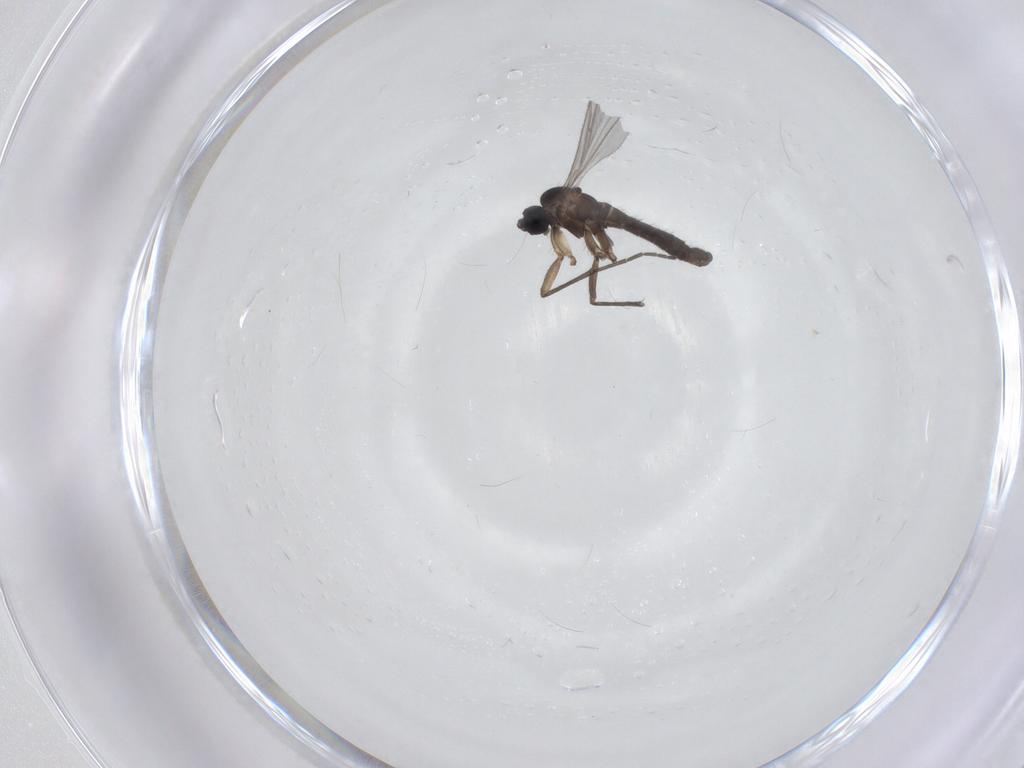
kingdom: Animalia
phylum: Arthropoda
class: Insecta
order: Diptera
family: Sciaridae
